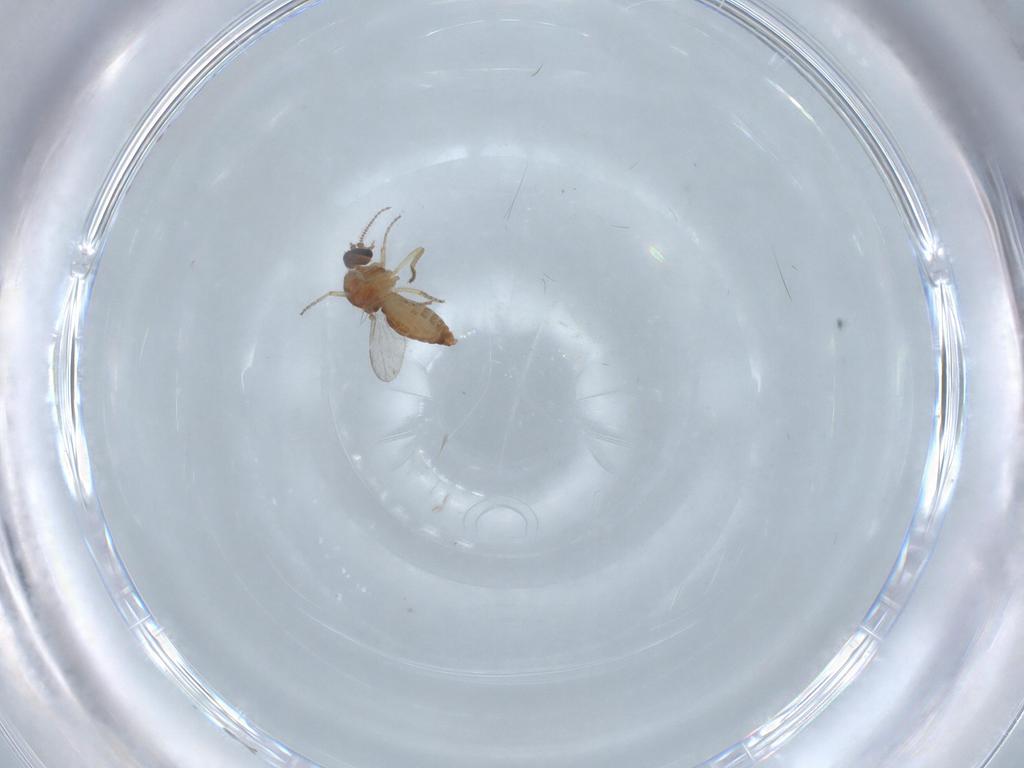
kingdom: Animalia
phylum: Arthropoda
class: Insecta
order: Diptera
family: Ceratopogonidae
